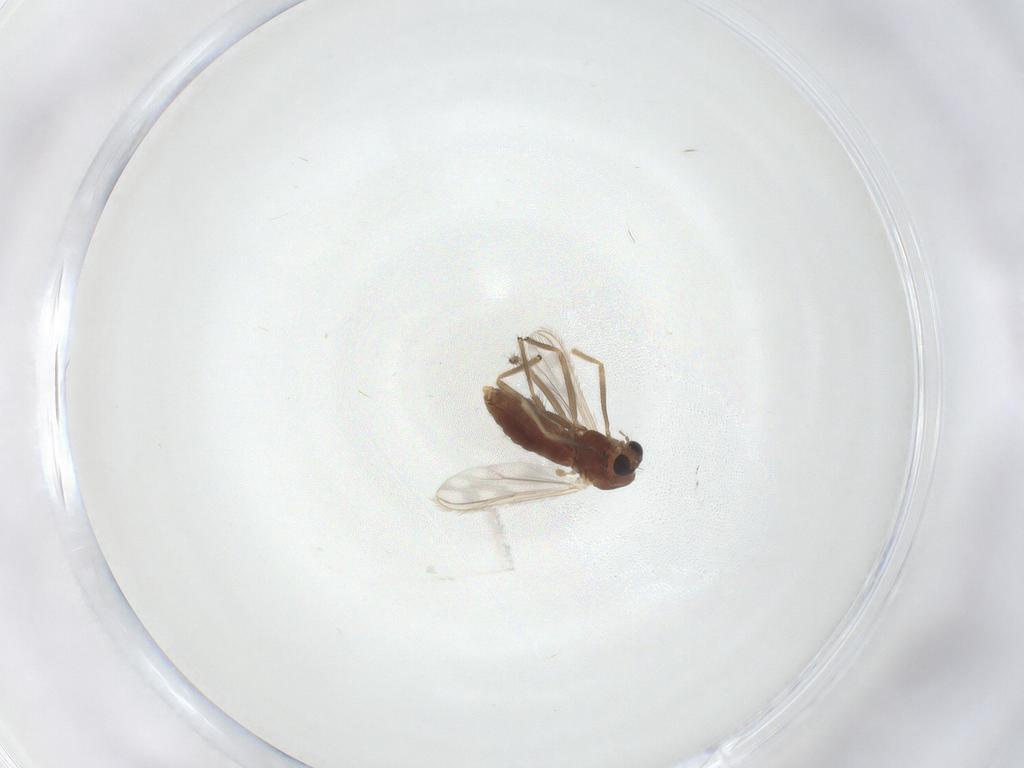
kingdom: Animalia
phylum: Arthropoda
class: Insecta
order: Diptera
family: Chironomidae
